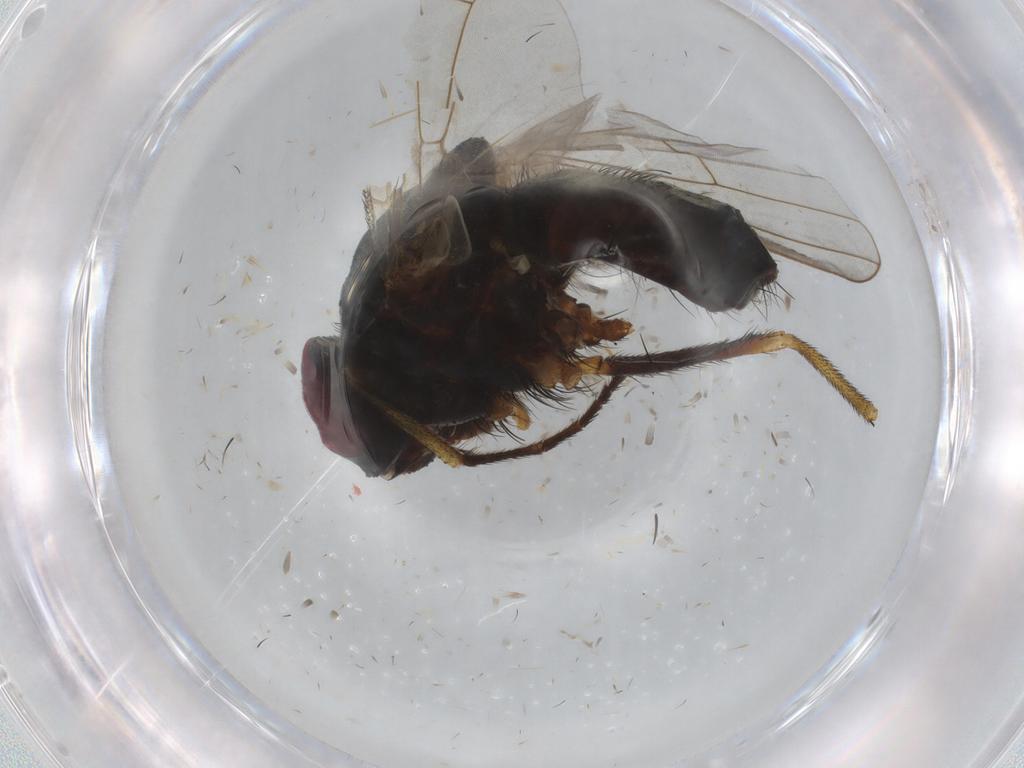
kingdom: Animalia
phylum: Arthropoda
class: Insecta
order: Diptera
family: Muscidae
